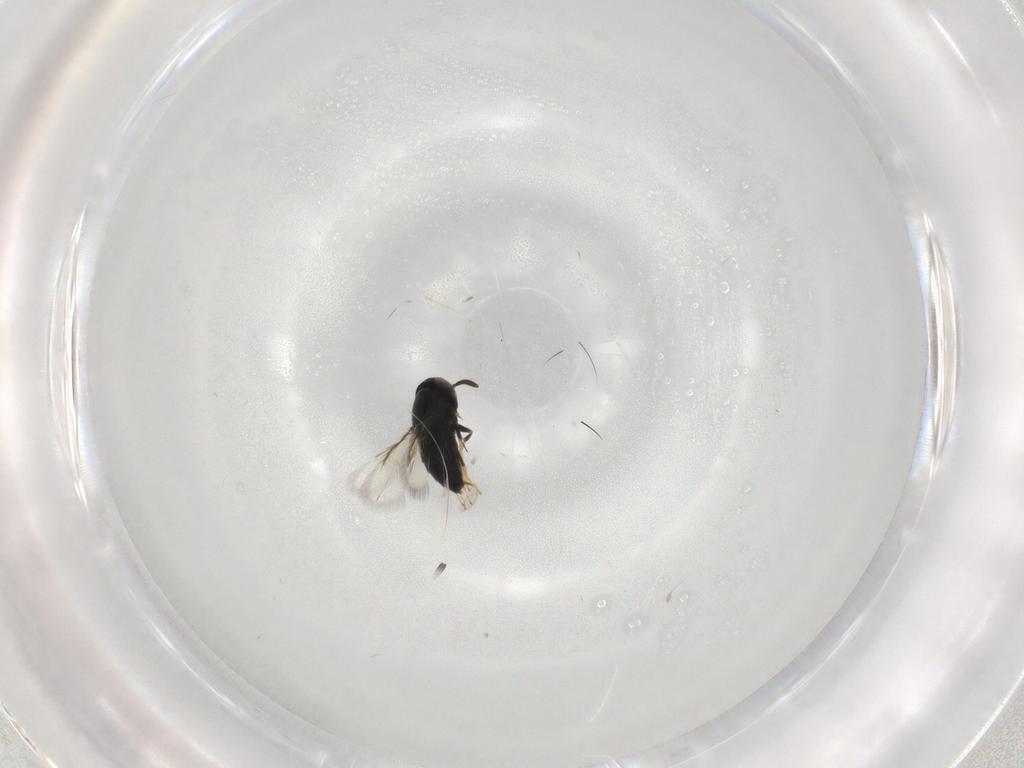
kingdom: Animalia
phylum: Arthropoda
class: Insecta
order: Hymenoptera
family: Signiphoridae
